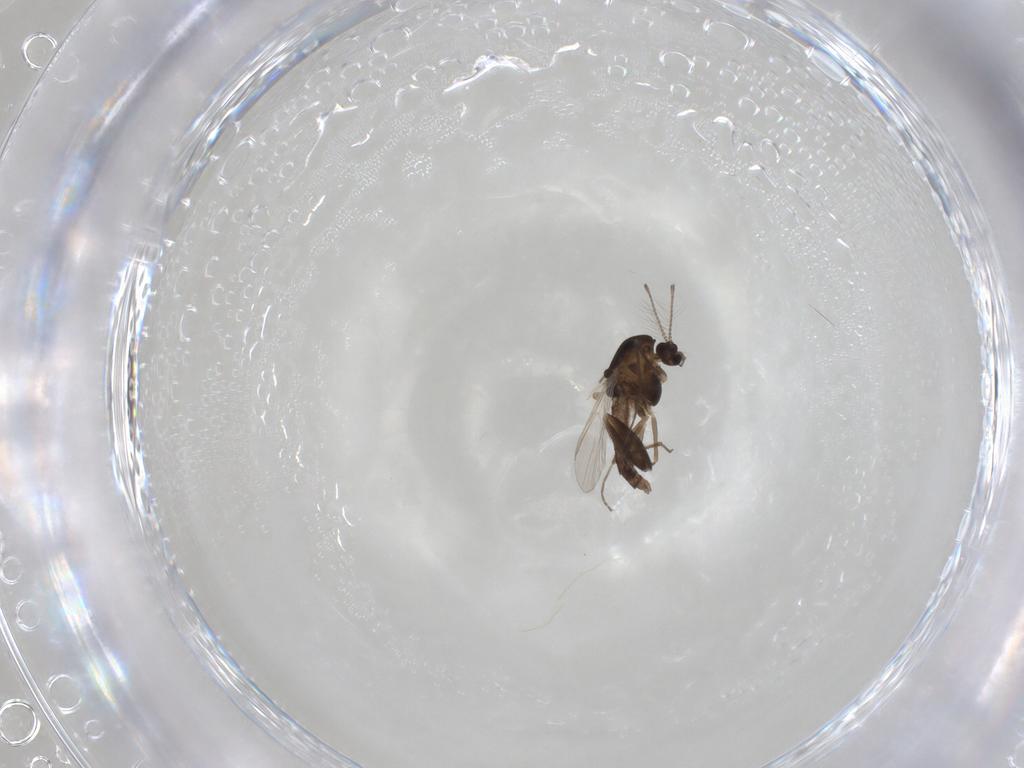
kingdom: Animalia
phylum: Arthropoda
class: Insecta
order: Diptera
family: Chironomidae
